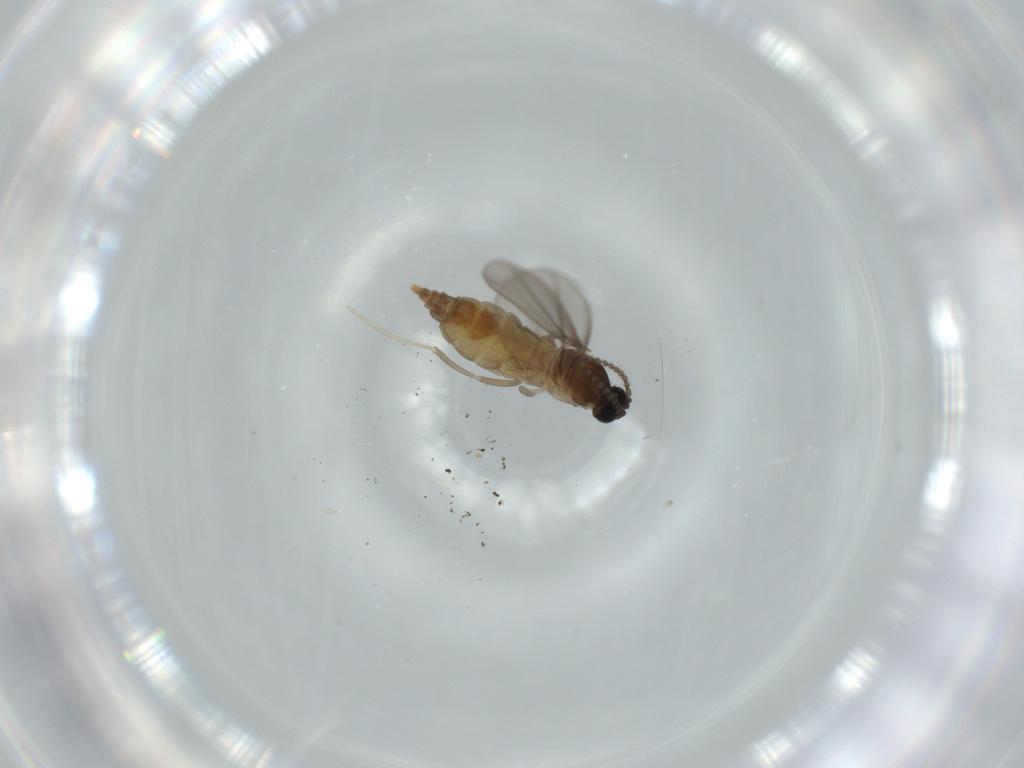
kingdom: Animalia
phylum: Arthropoda
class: Insecta
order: Diptera
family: Cecidomyiidae
